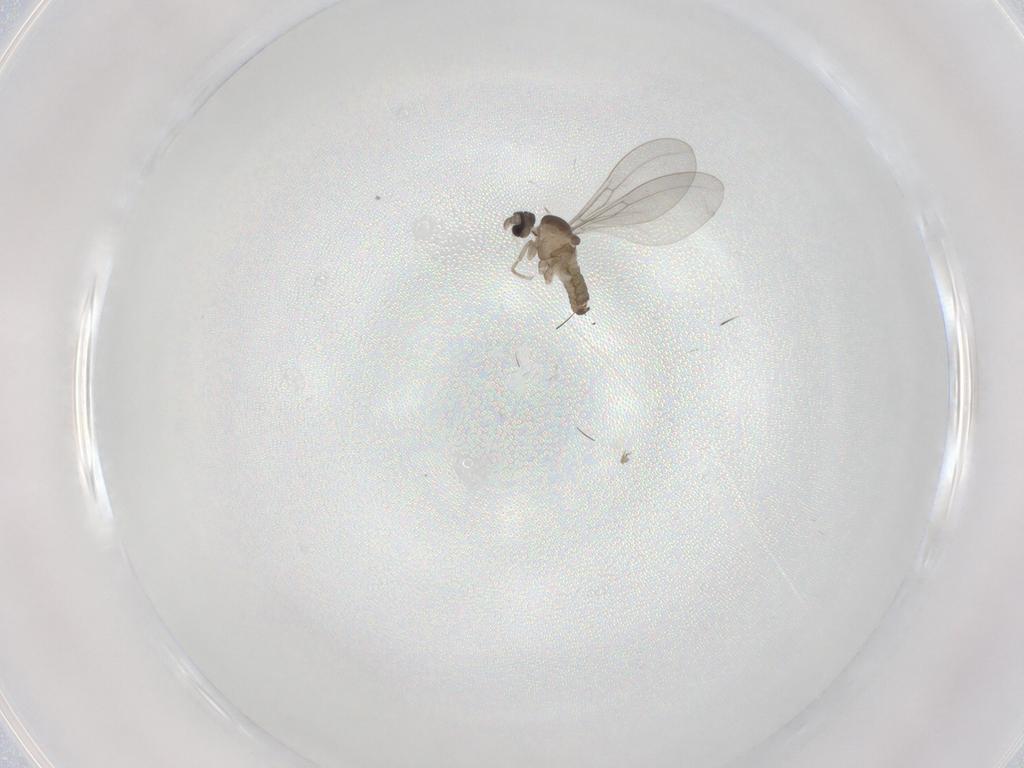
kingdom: Animalia
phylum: Arthropoda
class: Insecta
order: Diptera
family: Cecidomyiidae
